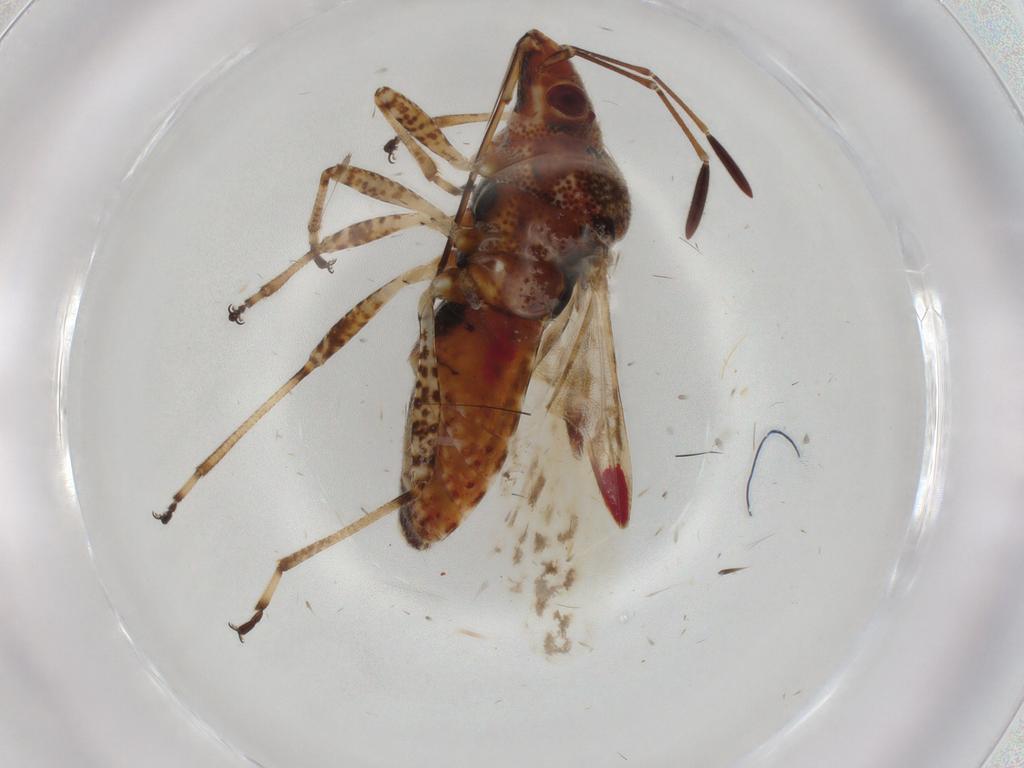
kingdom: Animalia
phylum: Arthropoda
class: Insecta
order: Hemiptera
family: Lygaeidae
